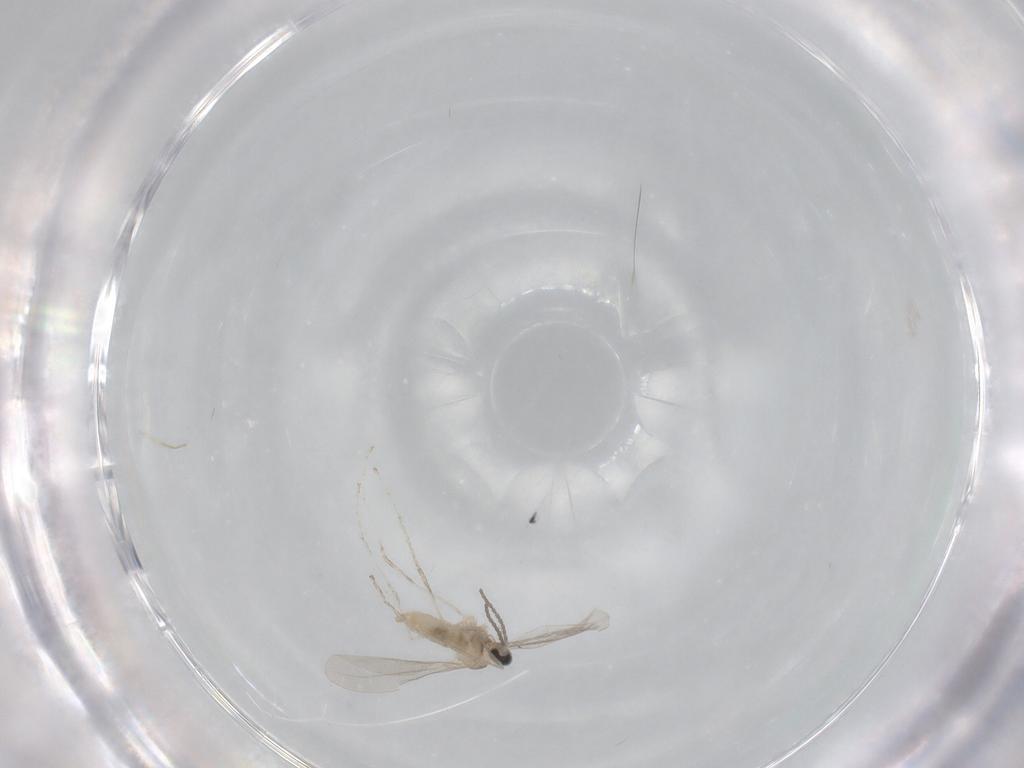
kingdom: Animalia
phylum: Arthropoda
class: Insecta
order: Diptera
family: Cecidomyiidae
